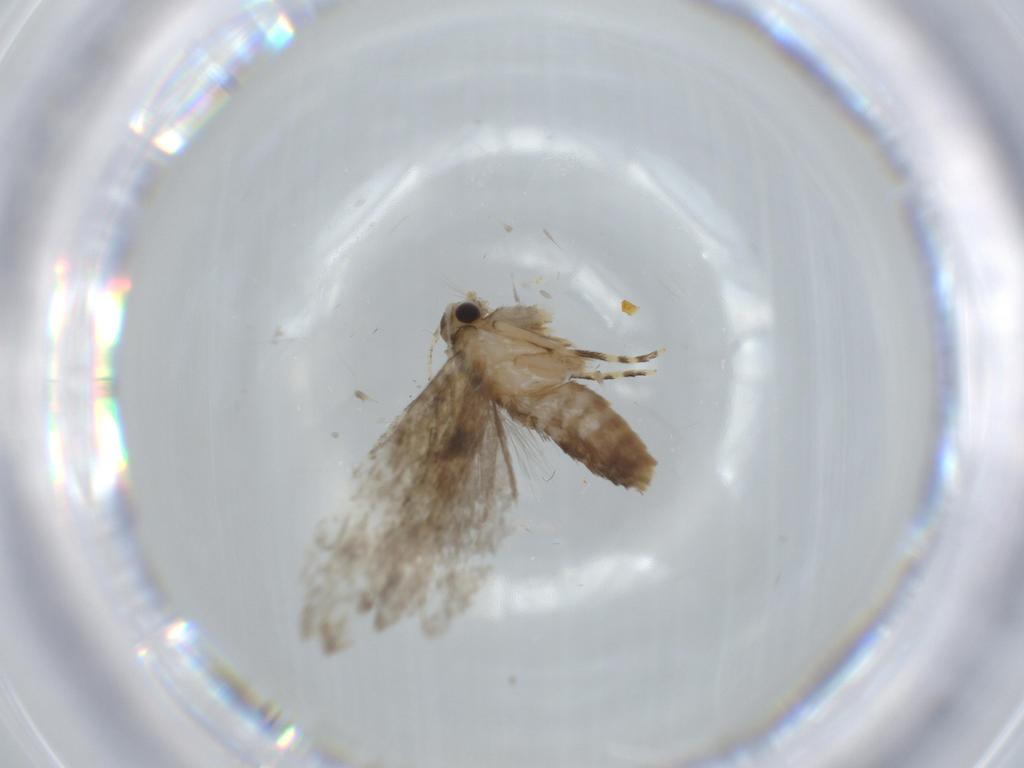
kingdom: Animalia
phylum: Arthropoda
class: Insecta
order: Lepidoptera
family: Tineidae
